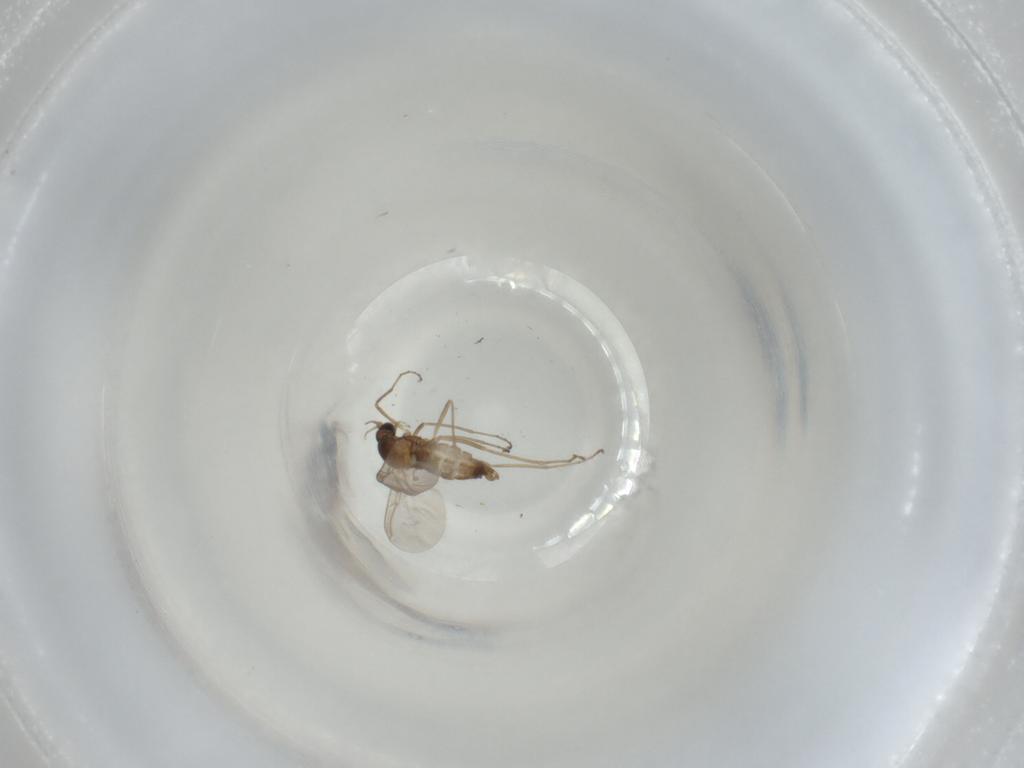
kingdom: Animalia
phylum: Arthropoda
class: Insecta
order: Diptera
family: Cecidomyiidae
